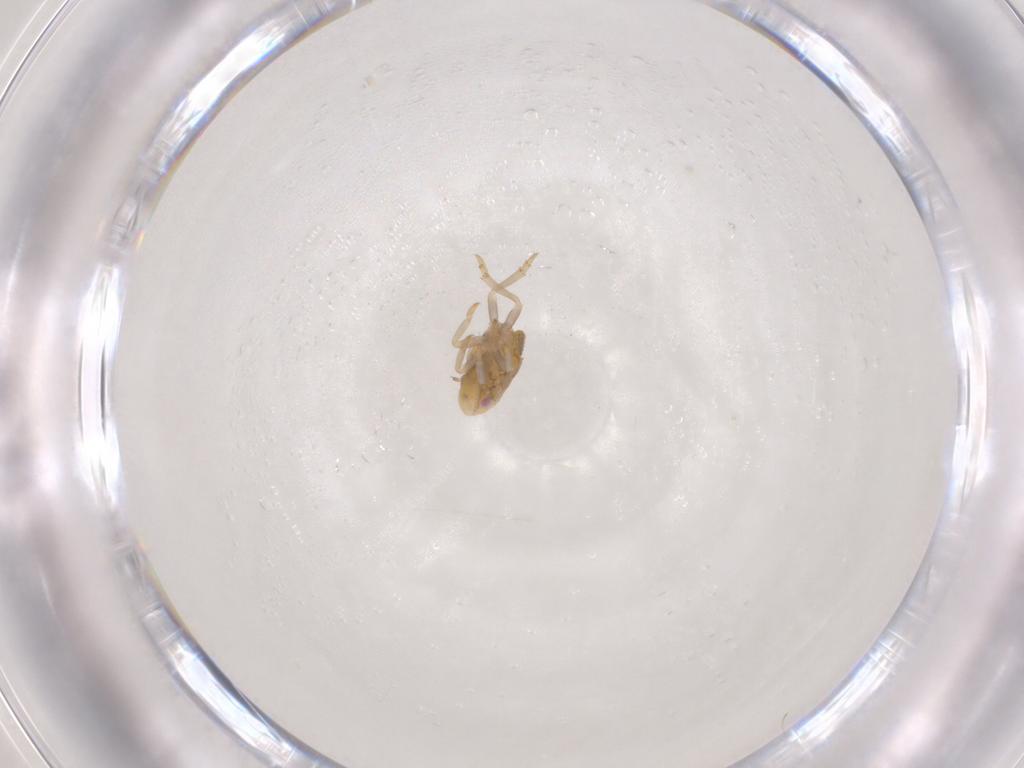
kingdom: Animalia
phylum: Arthropoda
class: Insecta
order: Hemiptera
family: Flatidae
